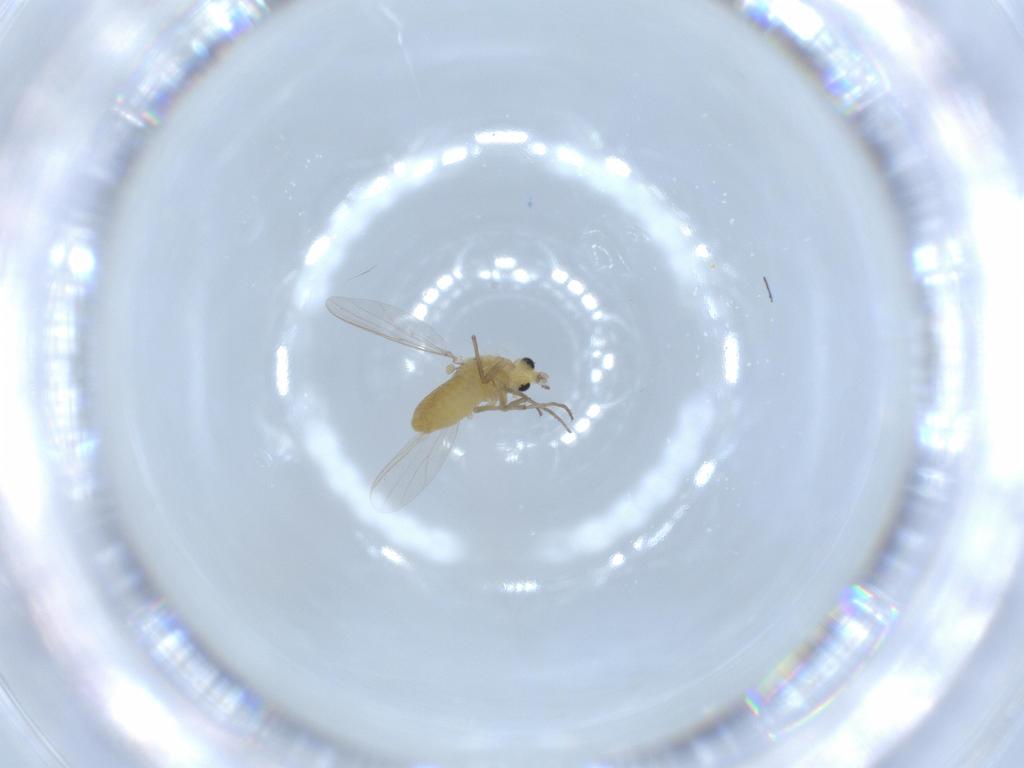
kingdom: Animalia
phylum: Arthropoda
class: Insecta
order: Diptera
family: Chironomidae
